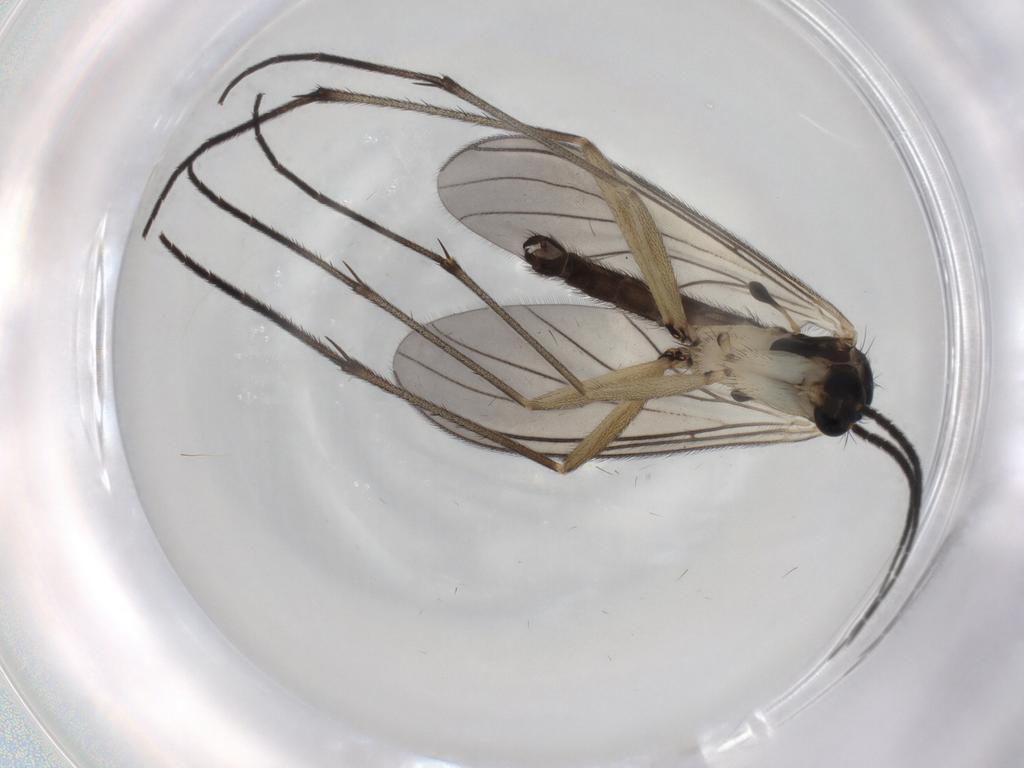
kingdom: Animalia
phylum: Arthropoda
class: Insecta
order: Diptera
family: Sciaridae
